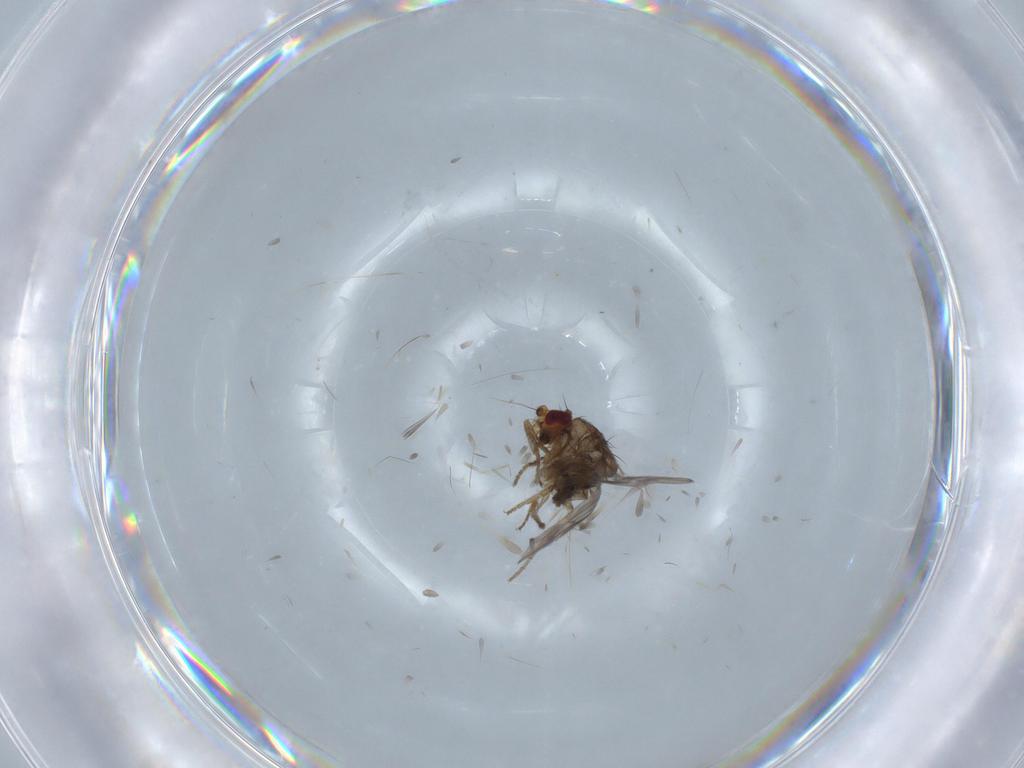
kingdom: Animalia
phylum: Arthropoda
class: Insecta
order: Diptera
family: Sphaeroceridae
